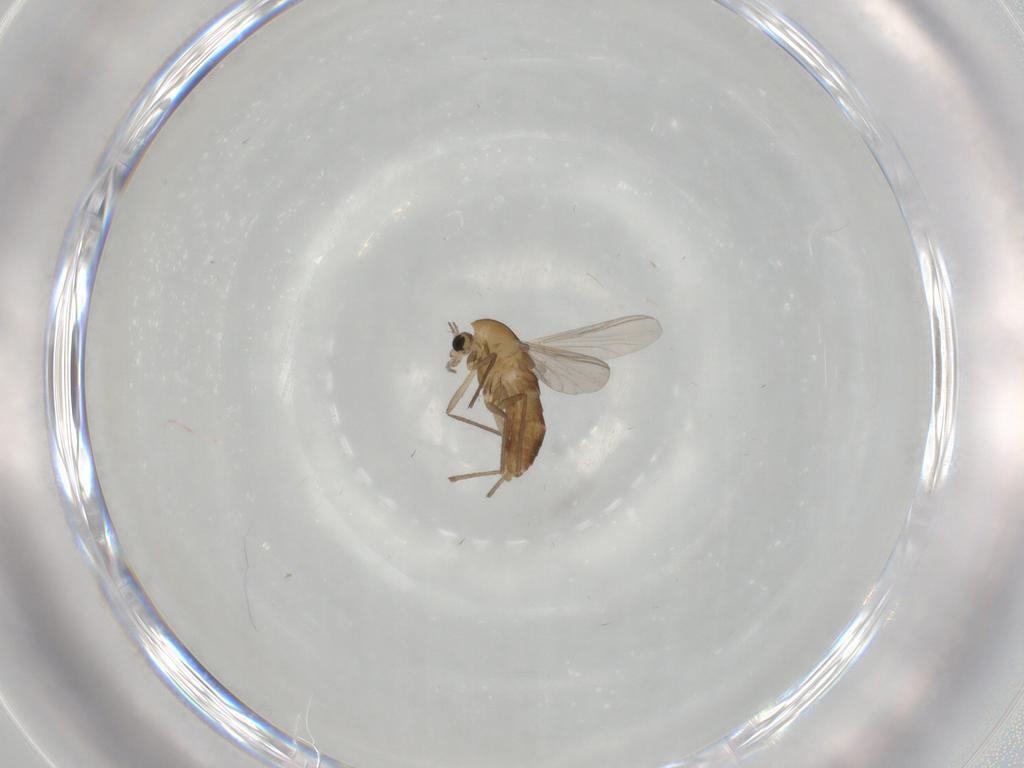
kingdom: Animalia
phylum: Arthropoda
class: Insecta
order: Diptera
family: Chironomidae
